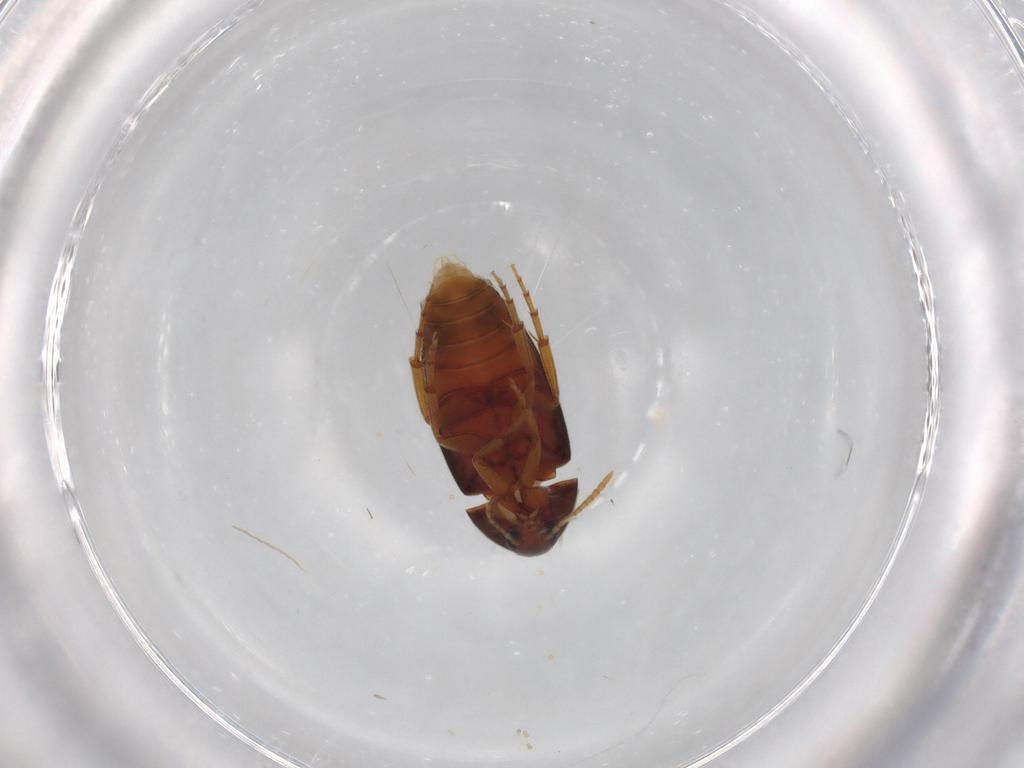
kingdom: Animalia
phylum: Arthropoda
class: Insecta
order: Coleoptera
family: Scraptiidae
